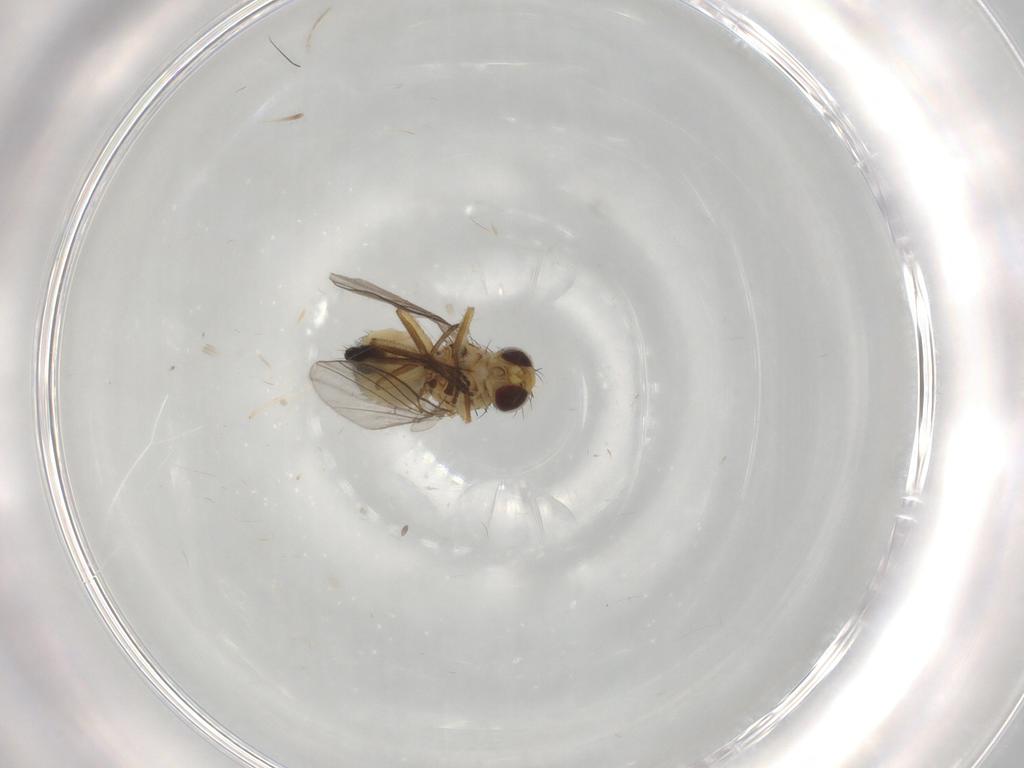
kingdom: Animalia
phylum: Arthropoda
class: Insecta
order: Diptera
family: Agromyzidae
